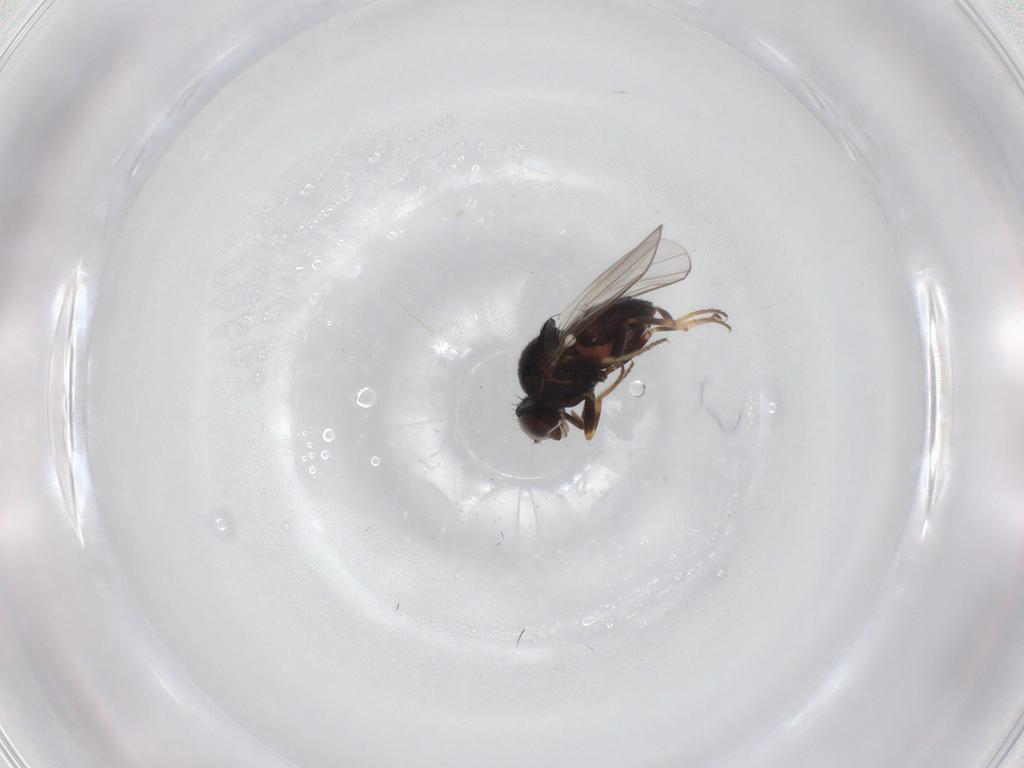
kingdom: Animalia
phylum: Arthropoda
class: Insecta
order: Diptera
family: Chloropidae
